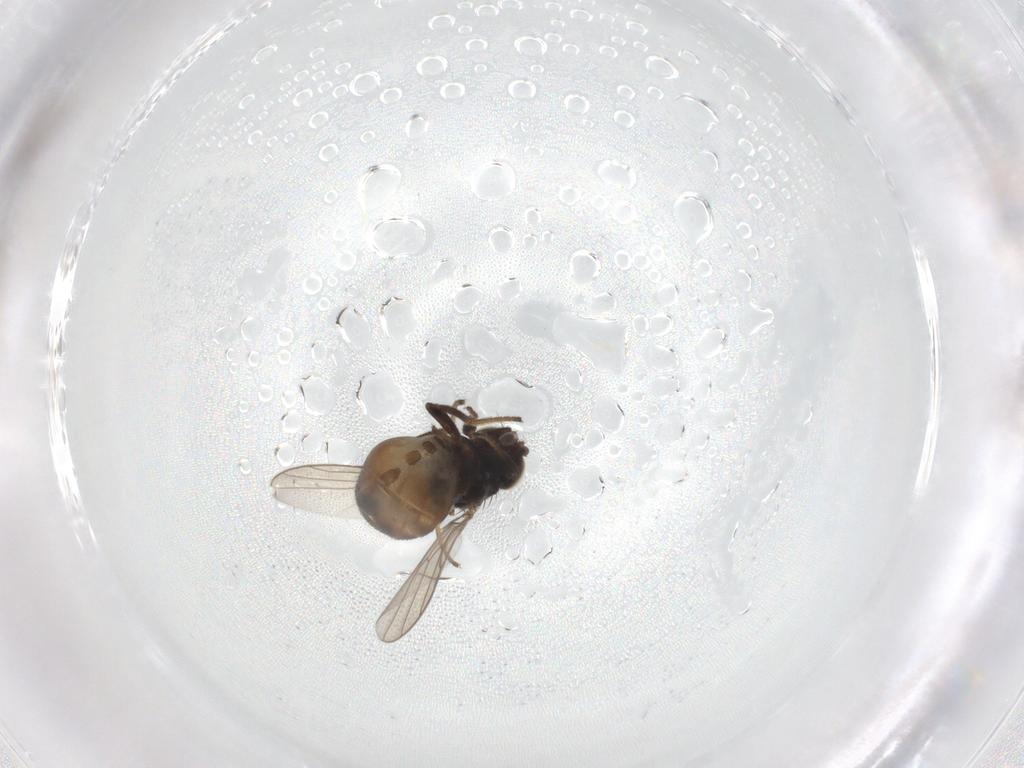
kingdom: Animalia
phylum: Arthropoda
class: Insecta
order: Diptera
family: Chloropidae
